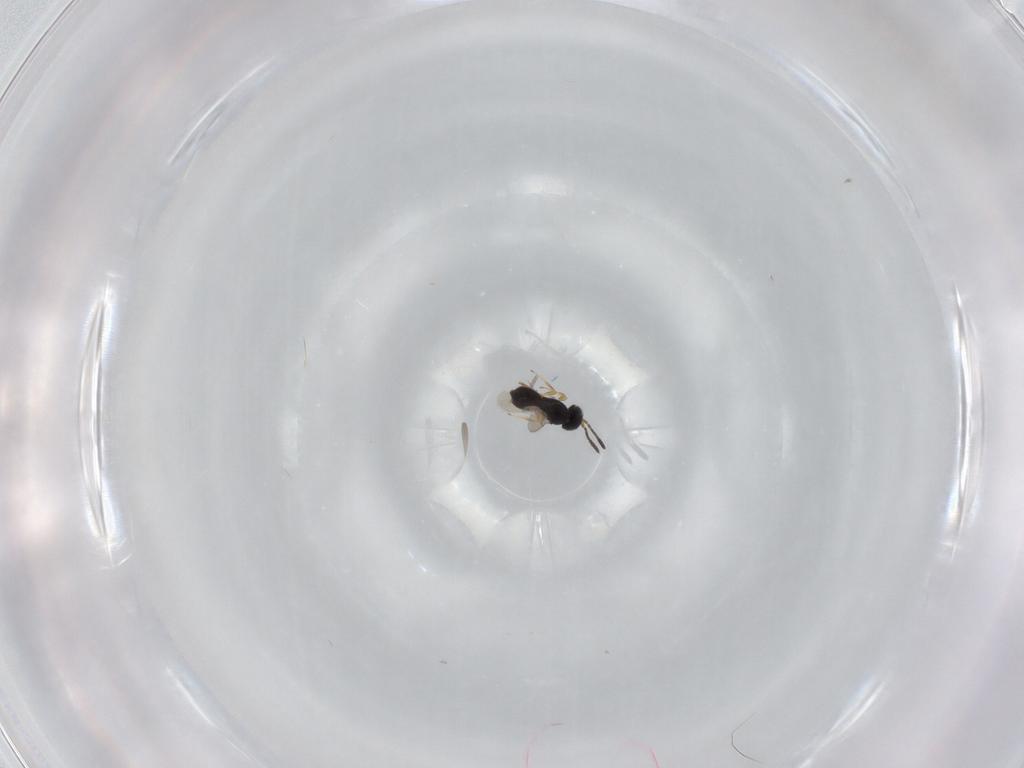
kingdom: Animalia
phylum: Arthropoda
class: Insecta
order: Hymenoptera
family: Scelionidae
